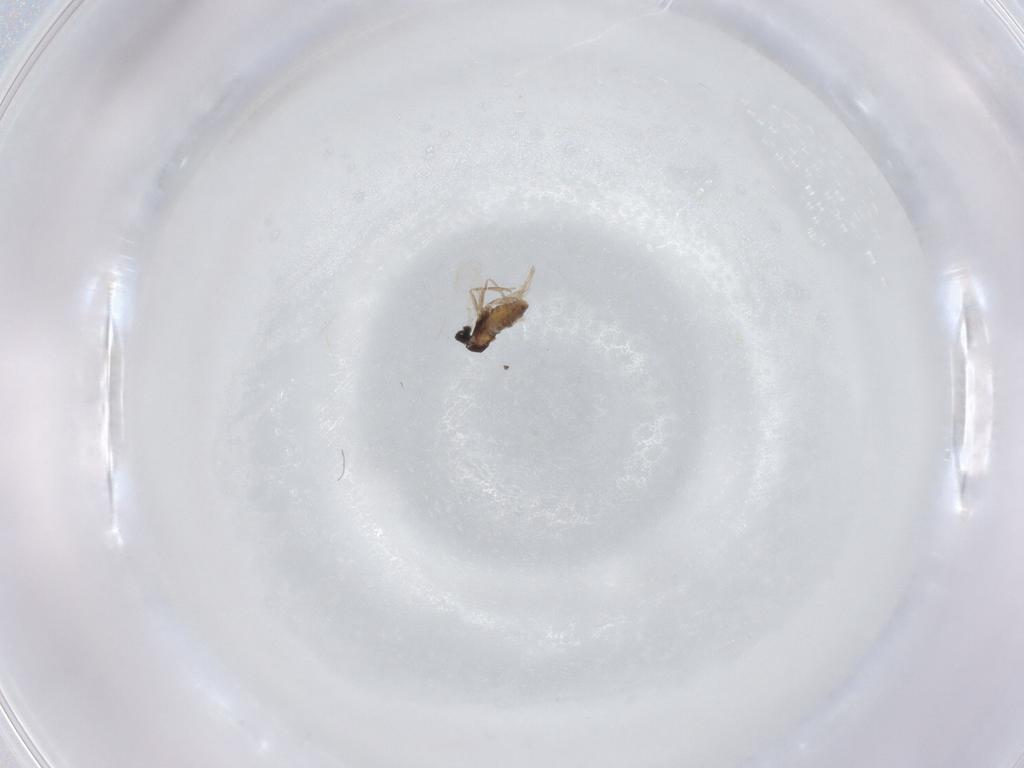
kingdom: Animalia
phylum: Arthropoda
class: Insecta
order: Diptera
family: Cecidomyiidae
